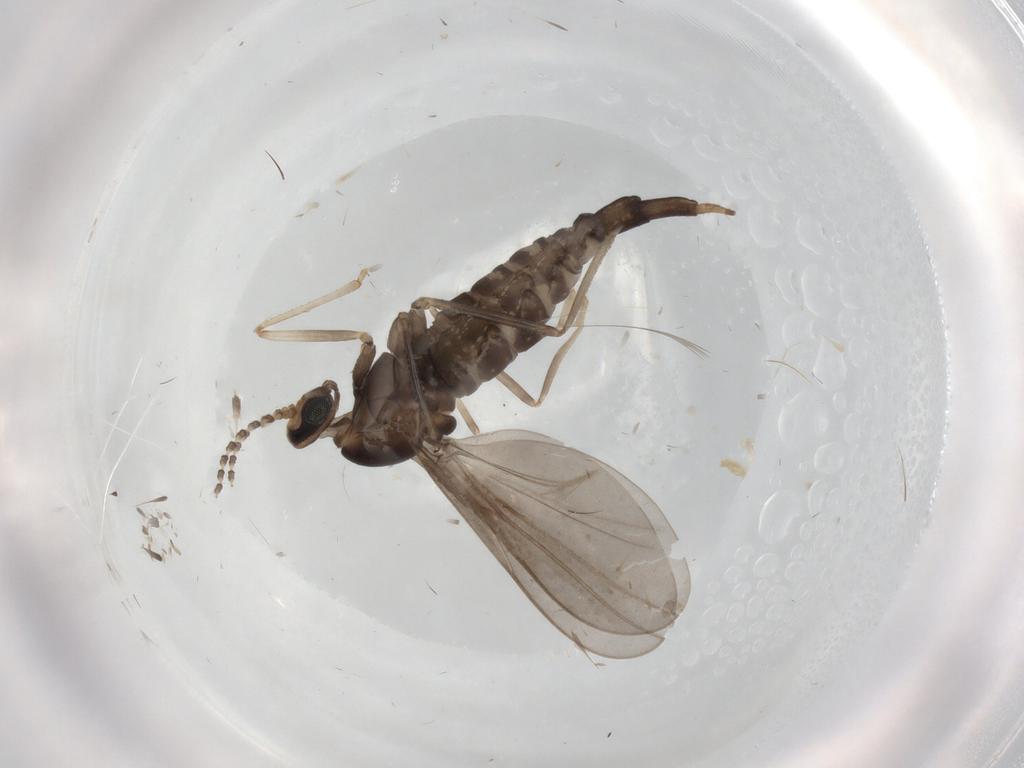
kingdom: Animalia
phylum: Arthropoda
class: Insecta
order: Diptera
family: Cecidomyiidae
